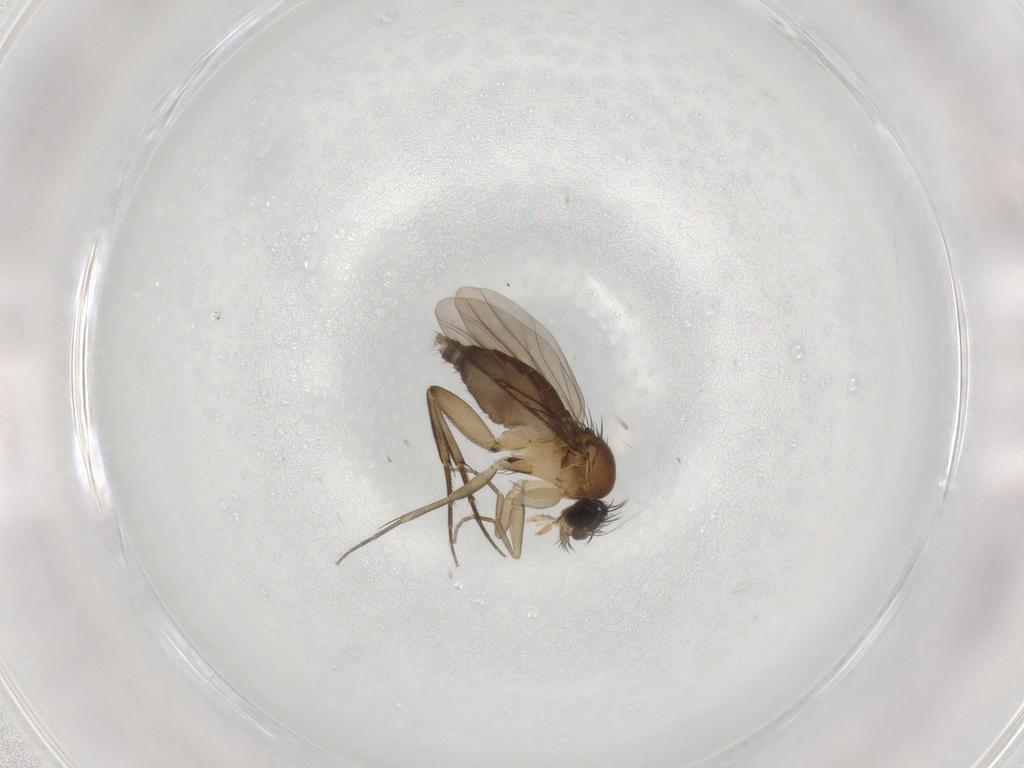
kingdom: Animalia
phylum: Arthropoda
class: Insecta
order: Diptera
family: Phoridae
